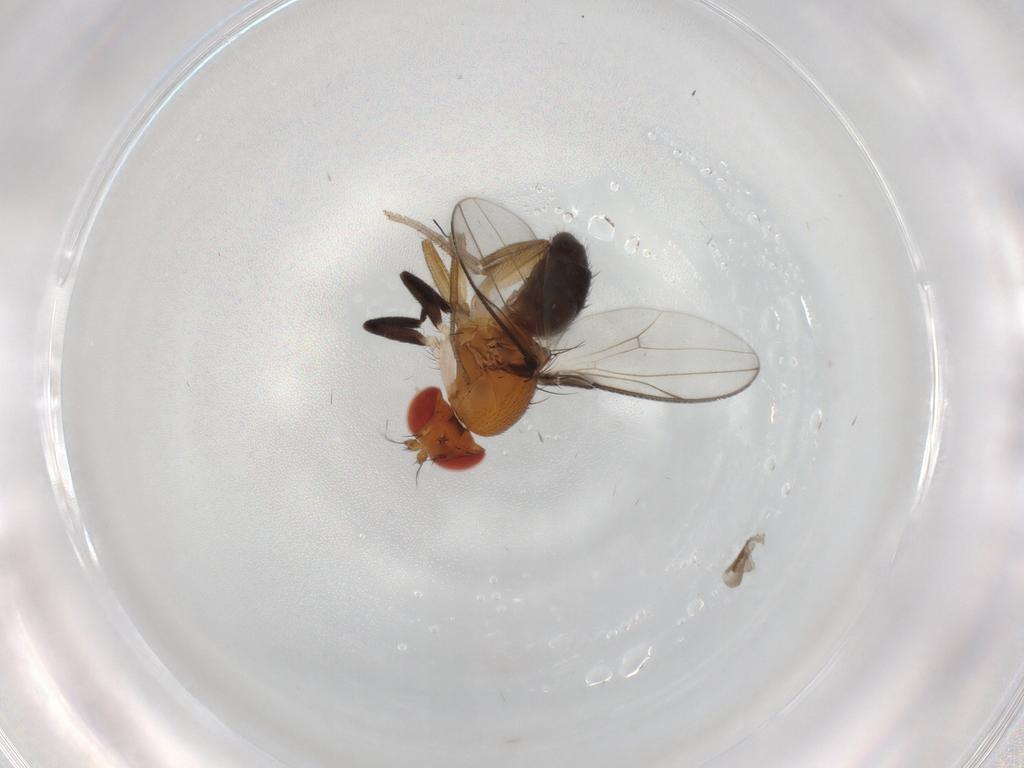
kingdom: Animalia
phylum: Arthropoda
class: Insecta
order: Diptera
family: Drosophilidae
